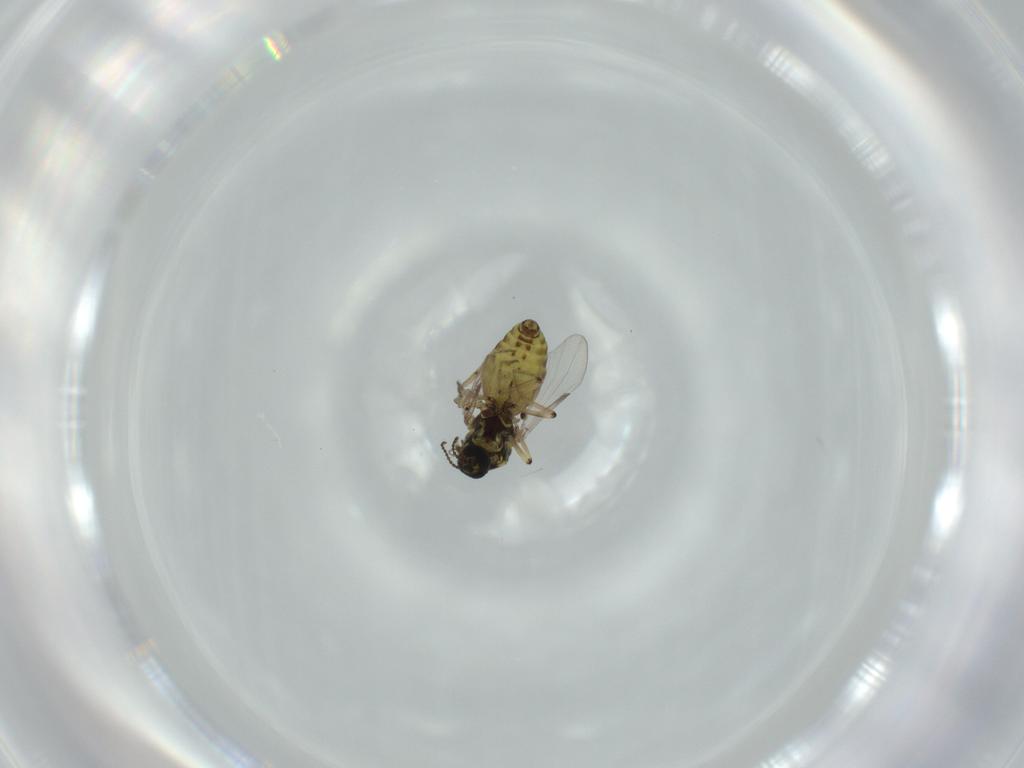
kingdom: Animalia
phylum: Arthropoda
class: Insecta
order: Diptera
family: Ceratopogonidae
